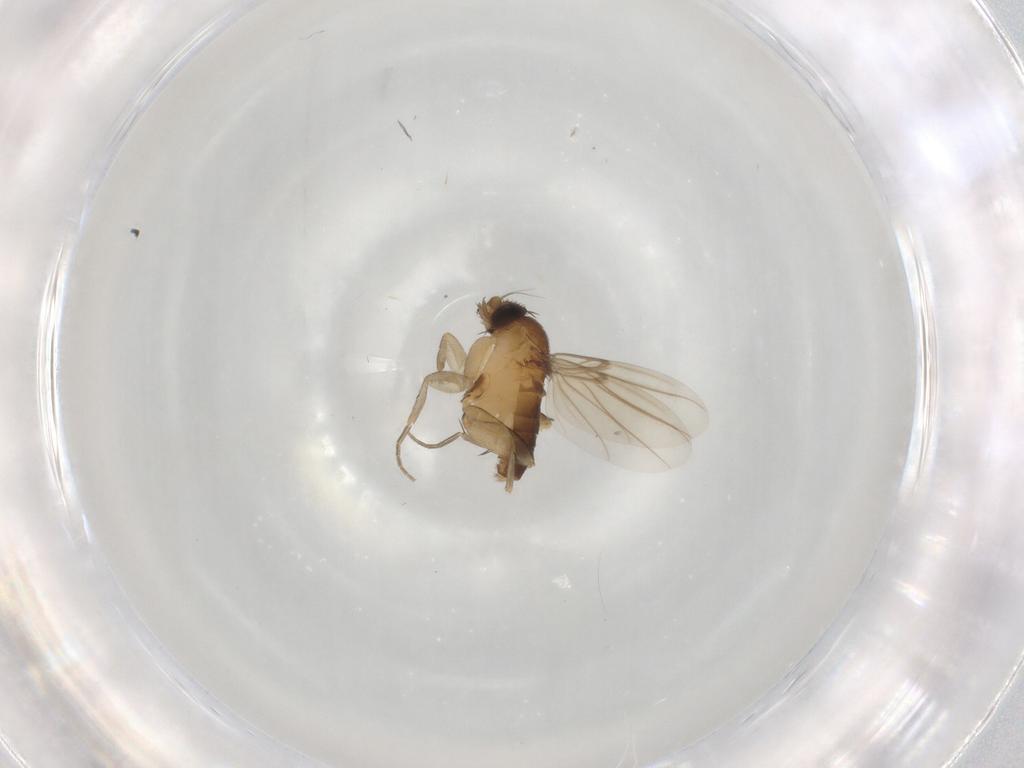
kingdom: Animalia
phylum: Arthropoda
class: Insecta
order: Diptera
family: Phoridae
